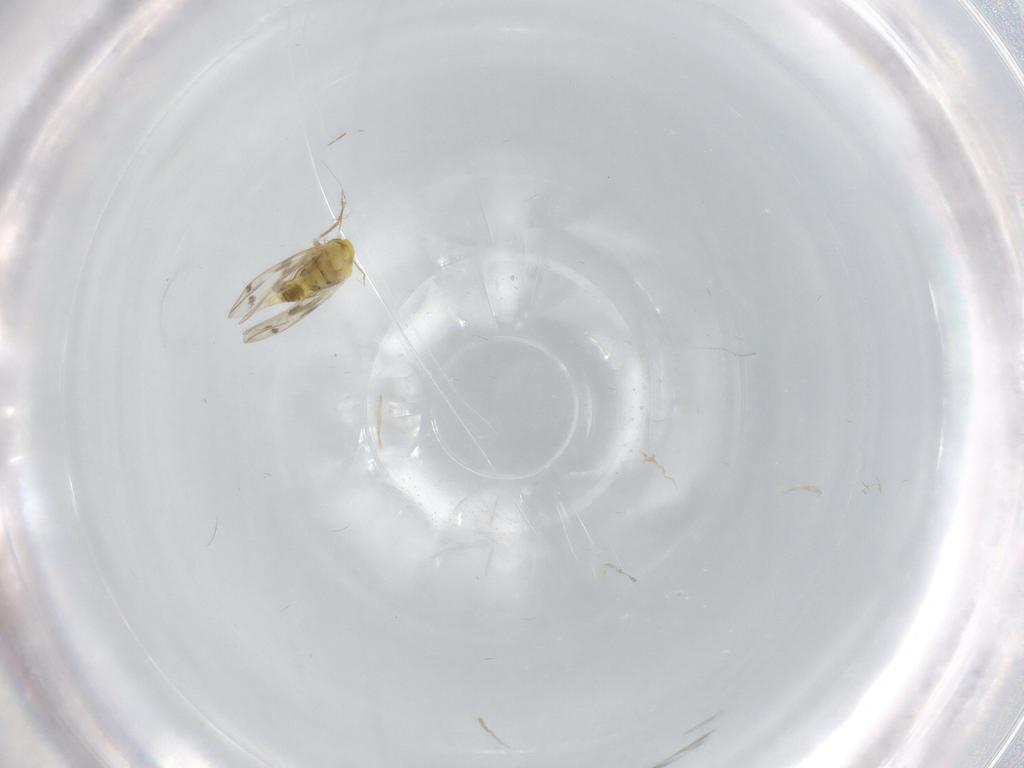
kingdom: Animalia
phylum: Arthropoda
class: Insecta
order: Hemiptera
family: Aleyrodidae
